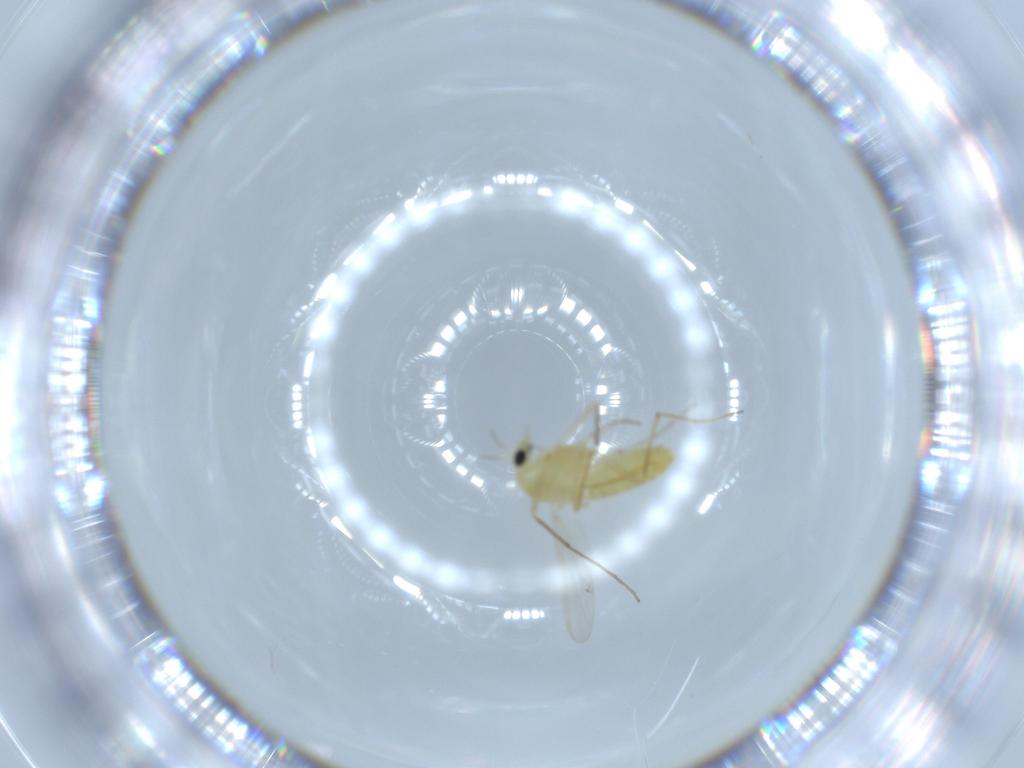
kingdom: Animalia
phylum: Arthropoda
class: Insecta
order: Diptera
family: Chironomidae
